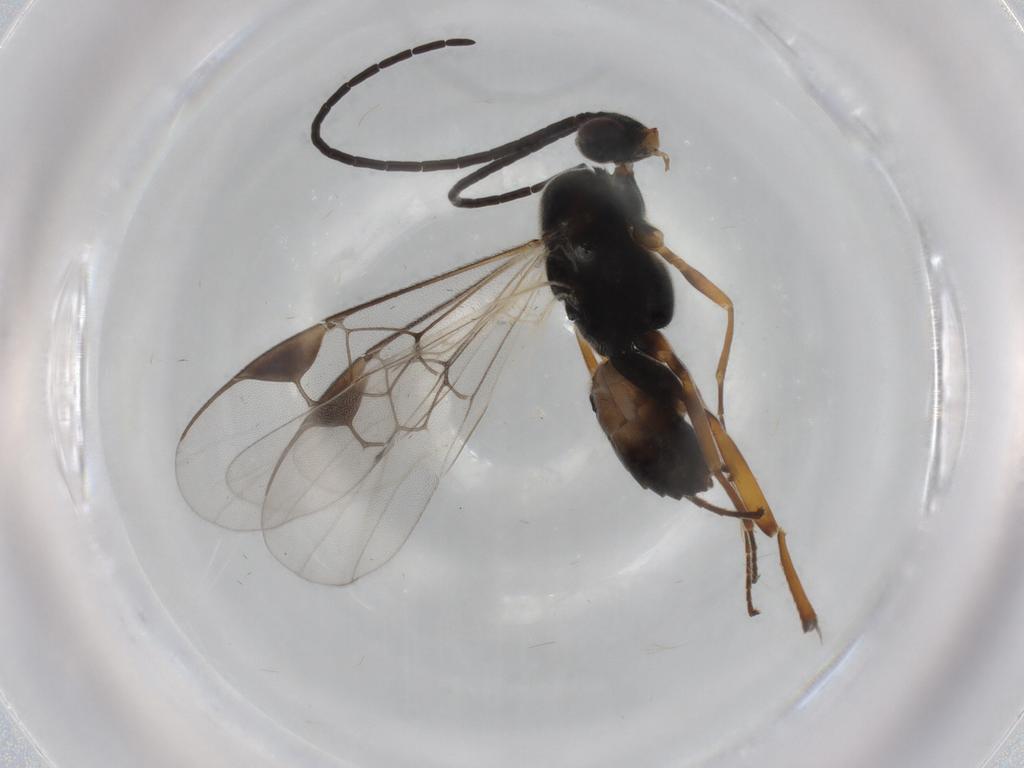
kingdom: Animalia
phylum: Arthropoda
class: Insecta
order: Hymenoptera
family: Braconidae
